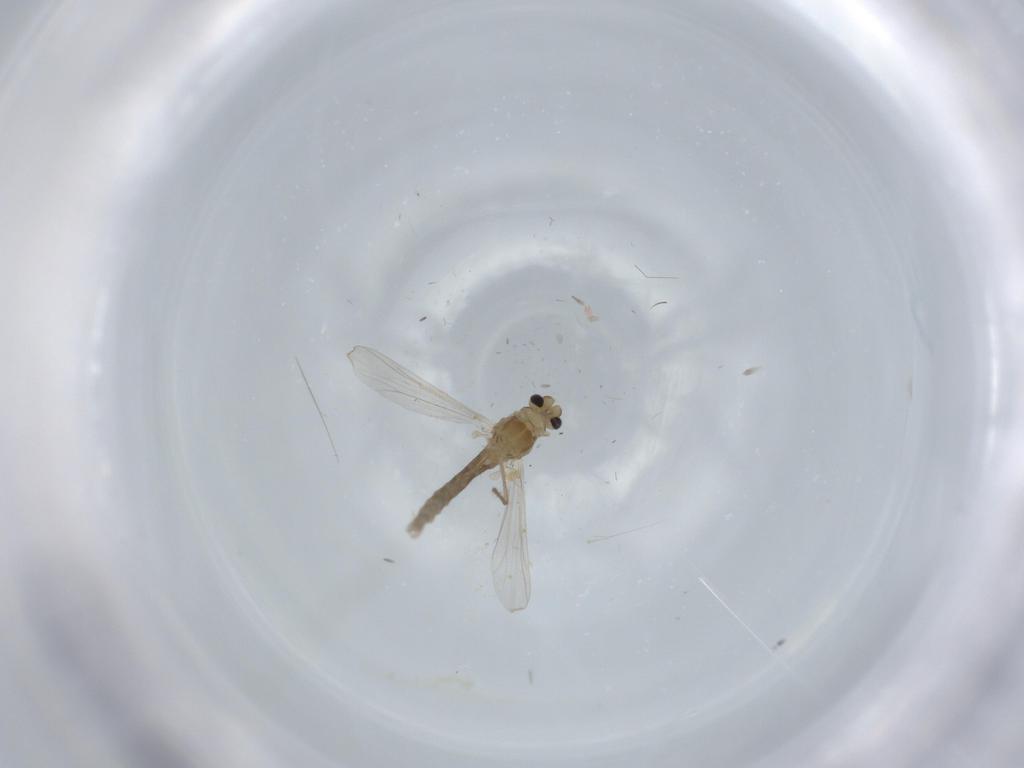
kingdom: Animalia
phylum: Arthropoda
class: Insecta
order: Diptera
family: Chironomidae
